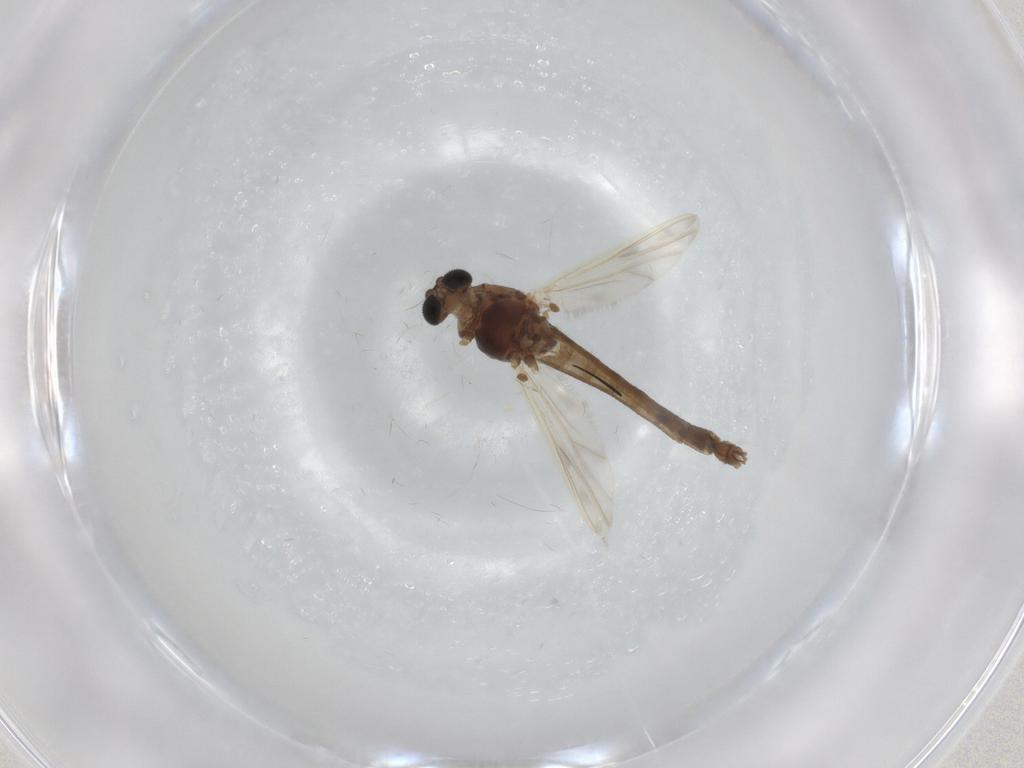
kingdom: Animalia
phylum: Arthropoda
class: Insecta
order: Diptera
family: Chironomidae
